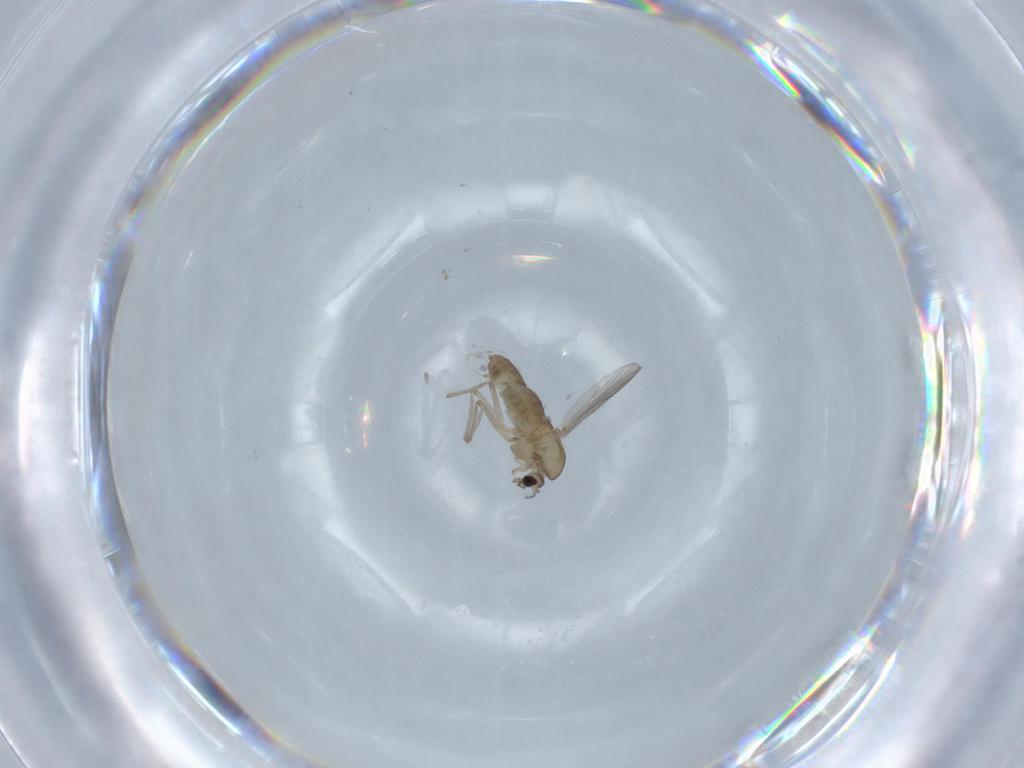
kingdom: Animalia
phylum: Arthropoda
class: Insecta
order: Diptera
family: Chironomidae
